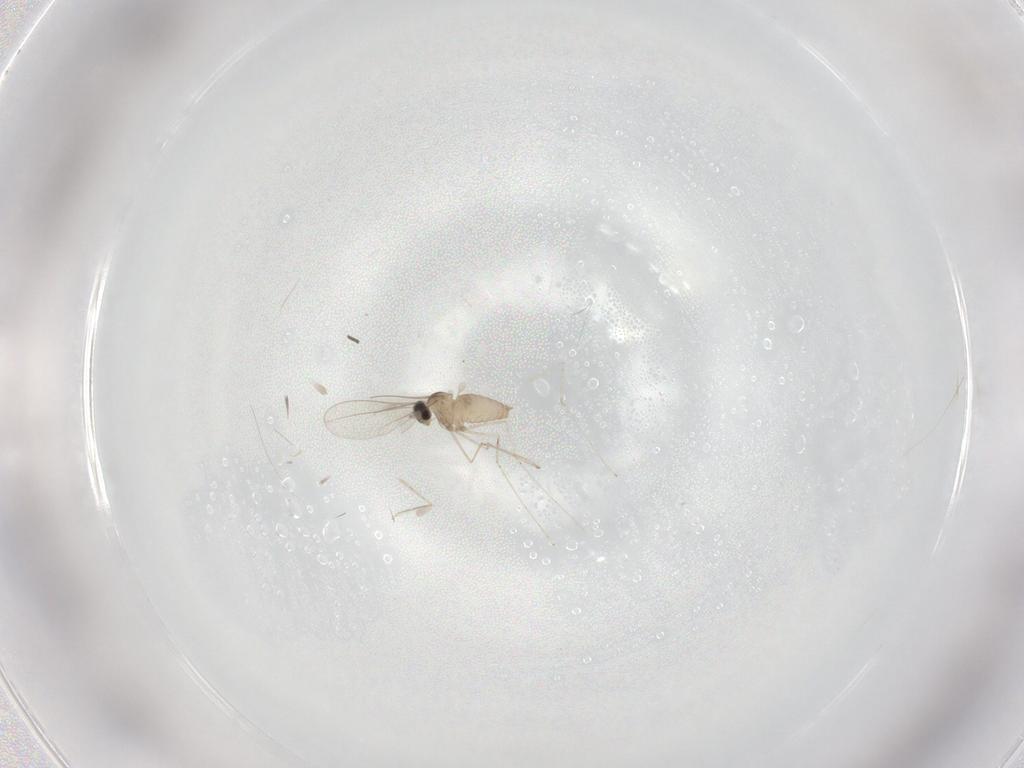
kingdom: Animalia
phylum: Arthropoda
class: Insecta
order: Diptera
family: Cecidomyiidae
